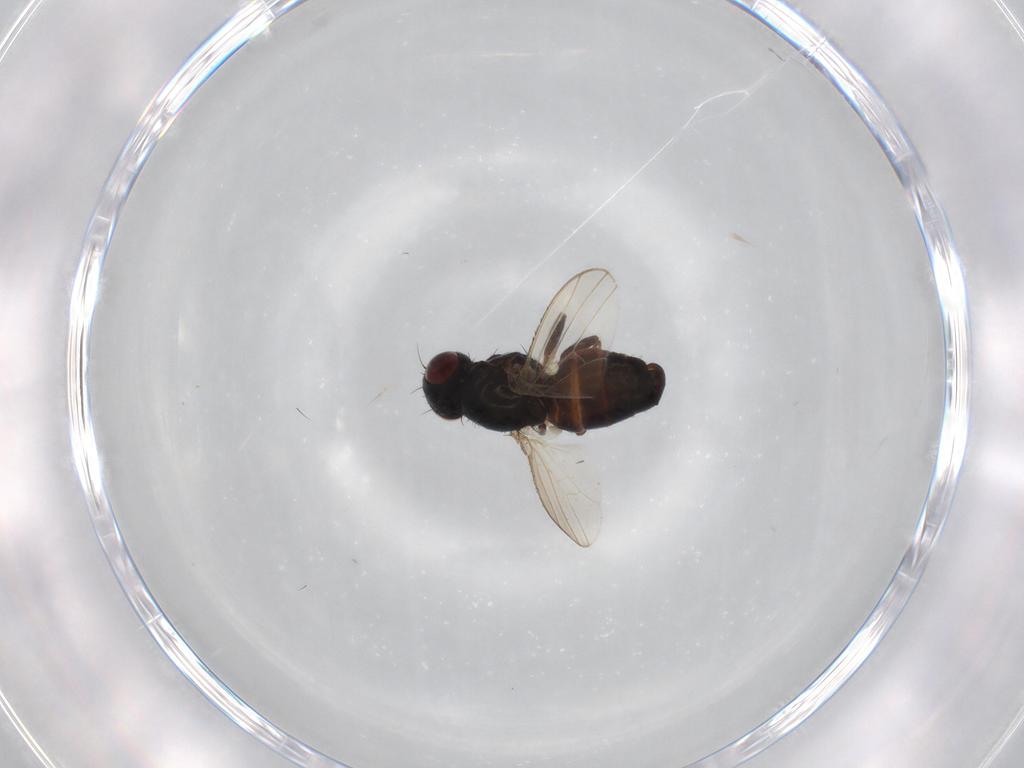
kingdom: Animalia
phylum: Arthropoda
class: Insecta
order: Diptera
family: Carnidae
